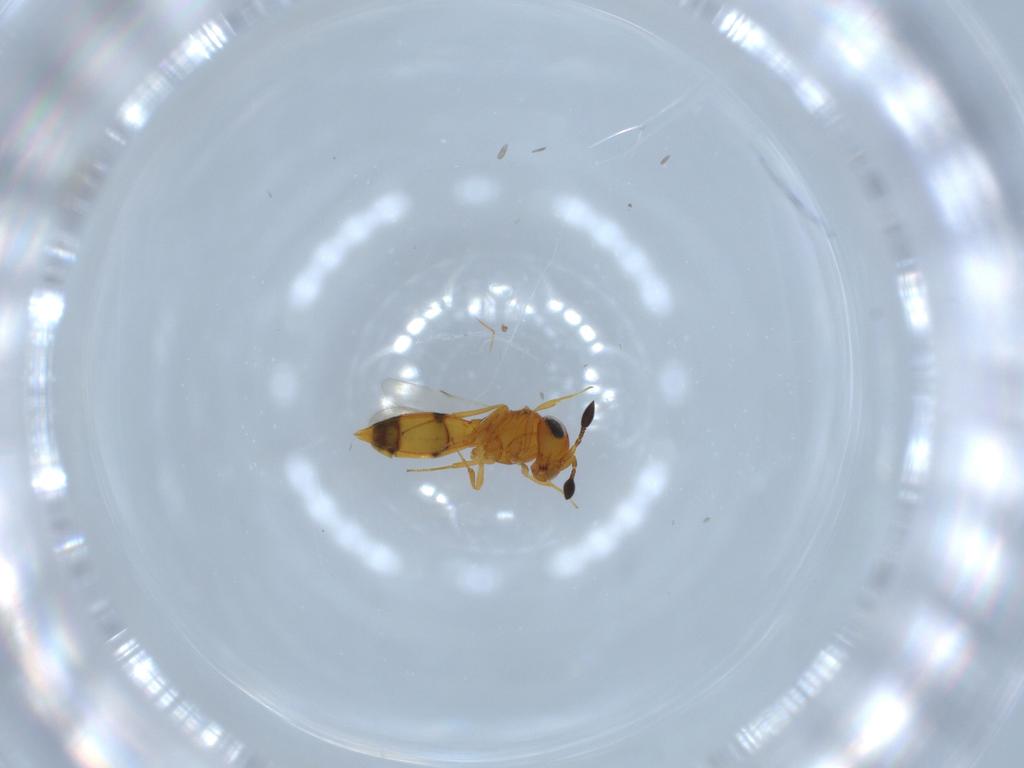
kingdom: Animalia
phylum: Arthropoda
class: Insecta
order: Hymenoptera
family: Scelionidae
